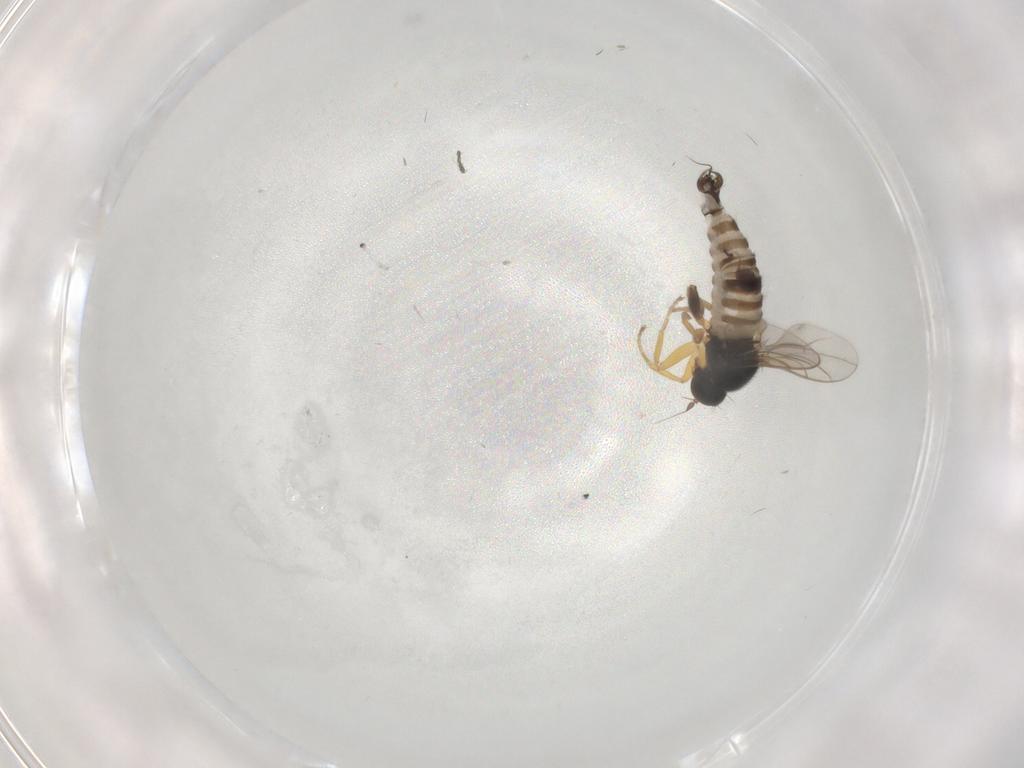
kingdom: Animalia
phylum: Arthropoda
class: Insecta
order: Diptera
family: Hybotidae
